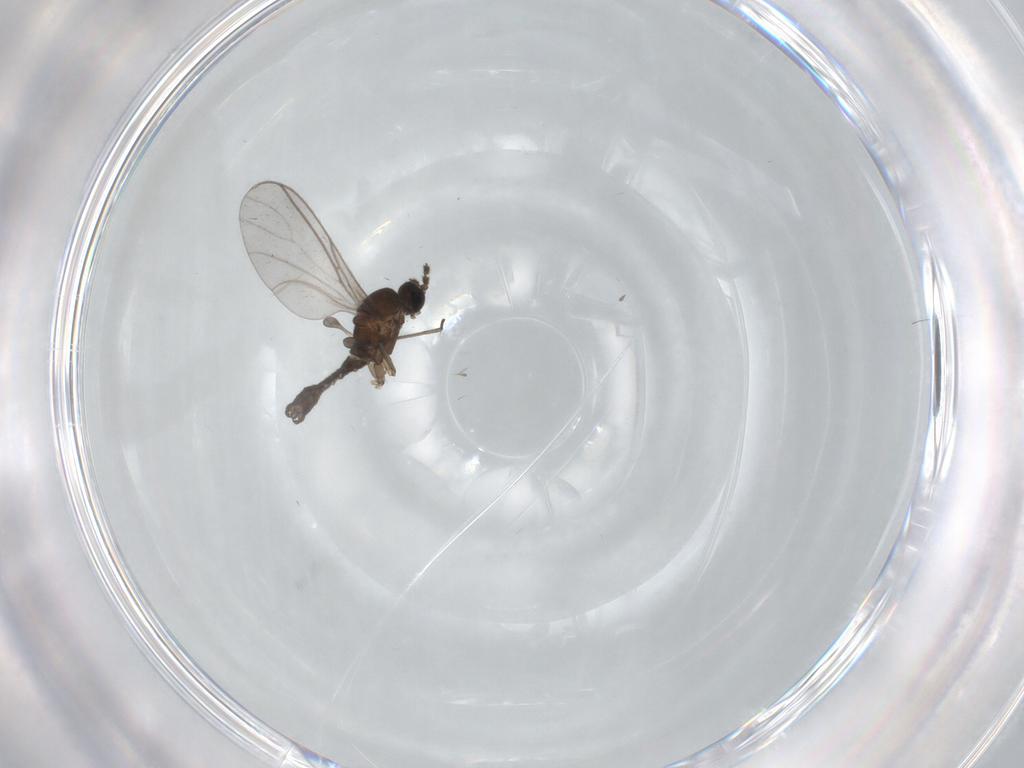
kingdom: Animalia
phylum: Arthropoda
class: Insecta
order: Diptera
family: Sciaridae
